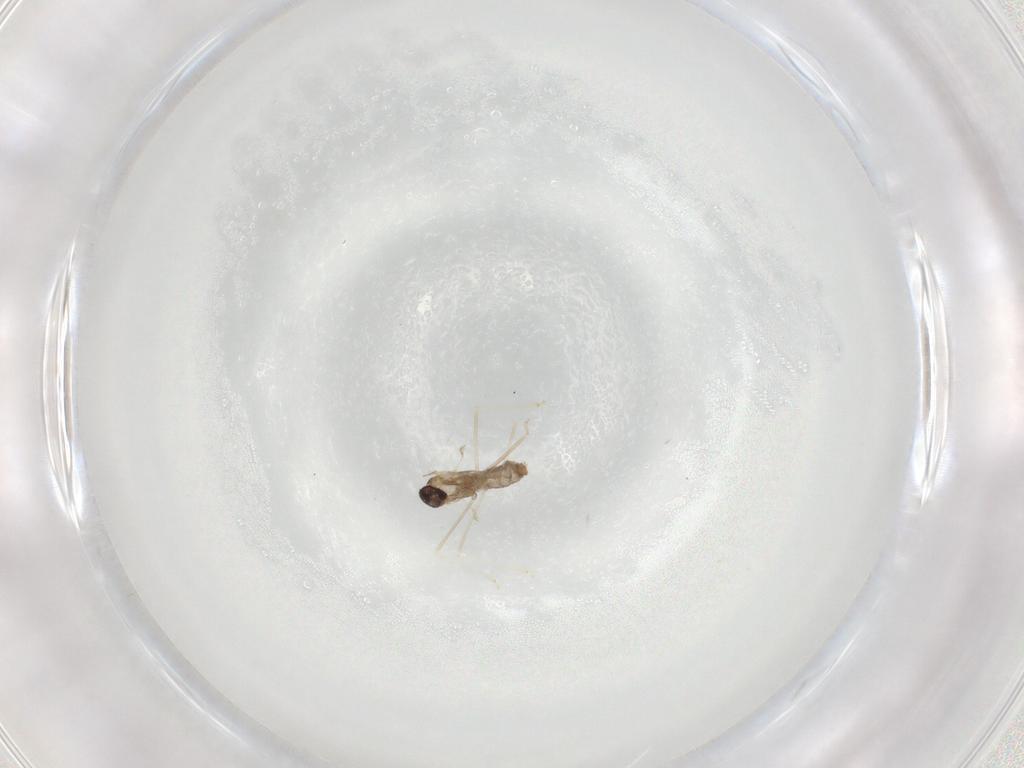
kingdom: Animalia
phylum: Arthropoda
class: Insecta
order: Diptera
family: Cecidomyiidae
